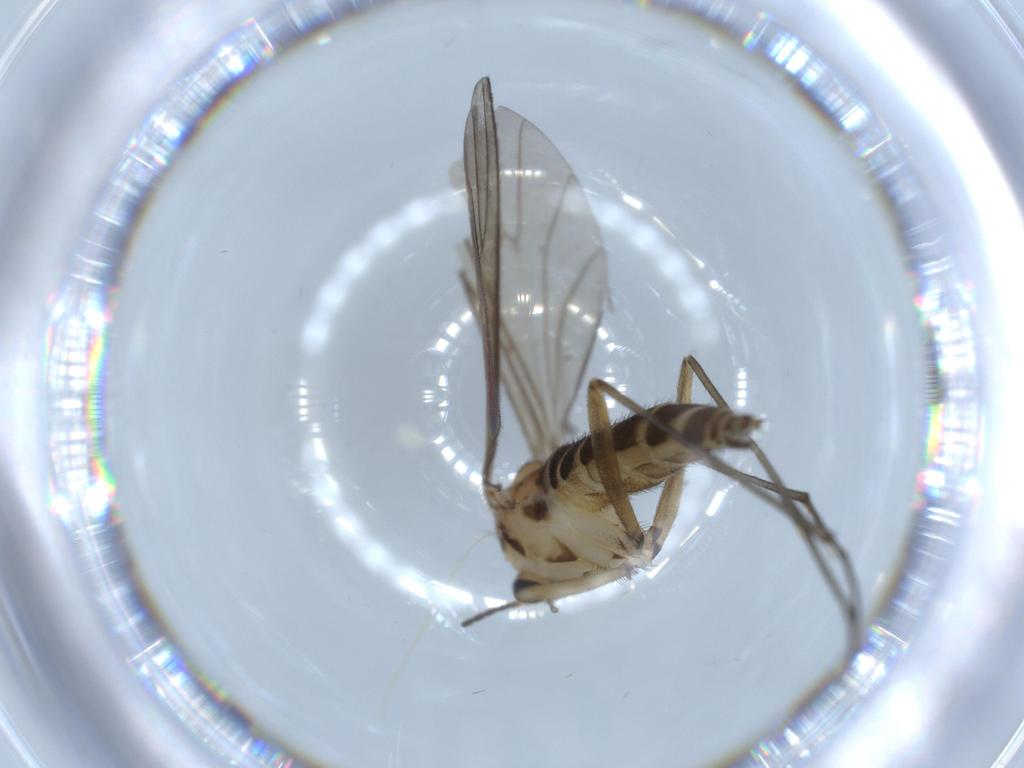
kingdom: Animalia
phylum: Arthropoda
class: Insecta
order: Diptera
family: Sciaridae
